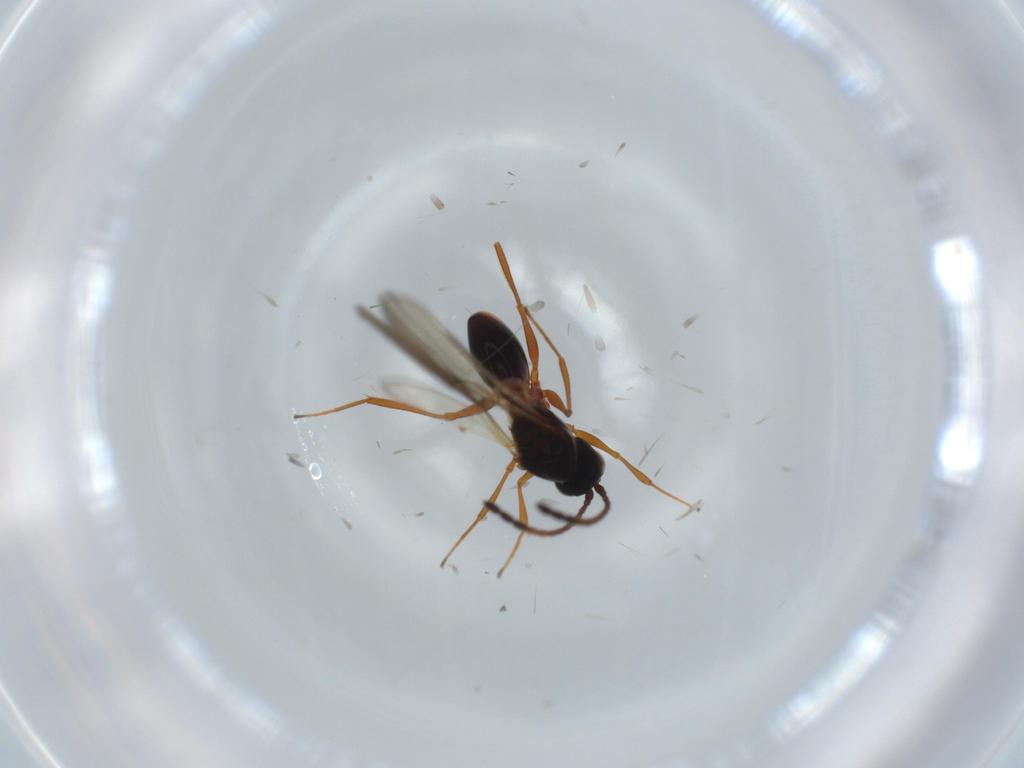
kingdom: Animalia
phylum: Arthropoda
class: Insecta
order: Hymenoptera
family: Figitidae
